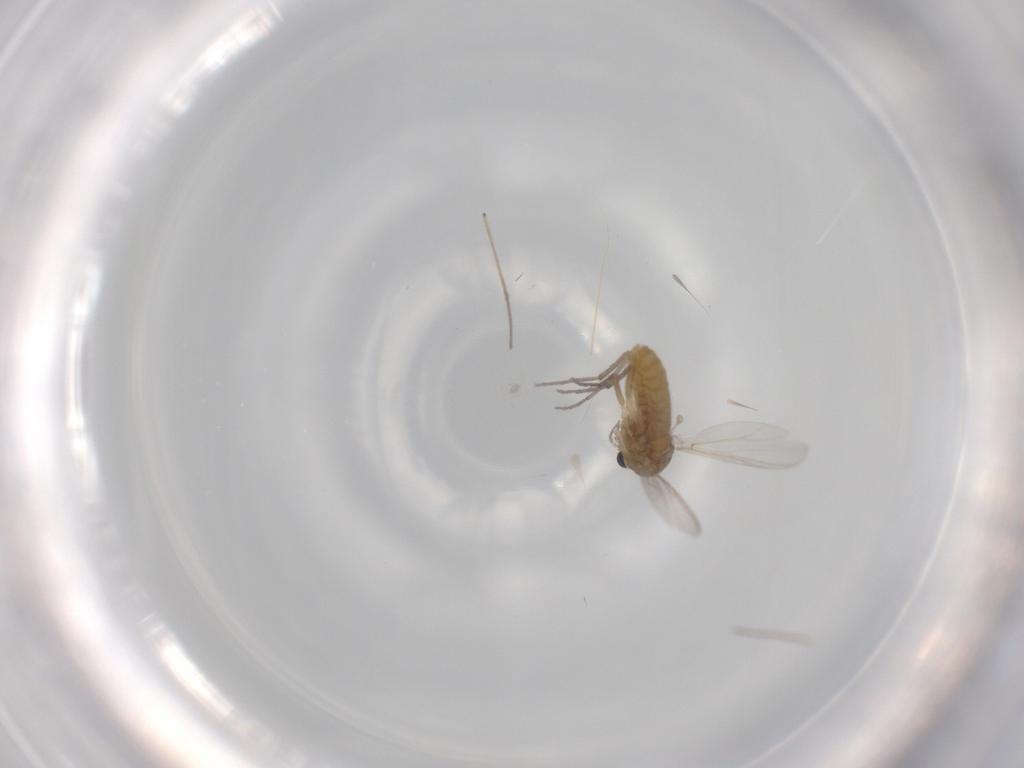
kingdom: Animalia
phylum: Arthropoda
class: Insecta
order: Diptera
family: Chironomidae
